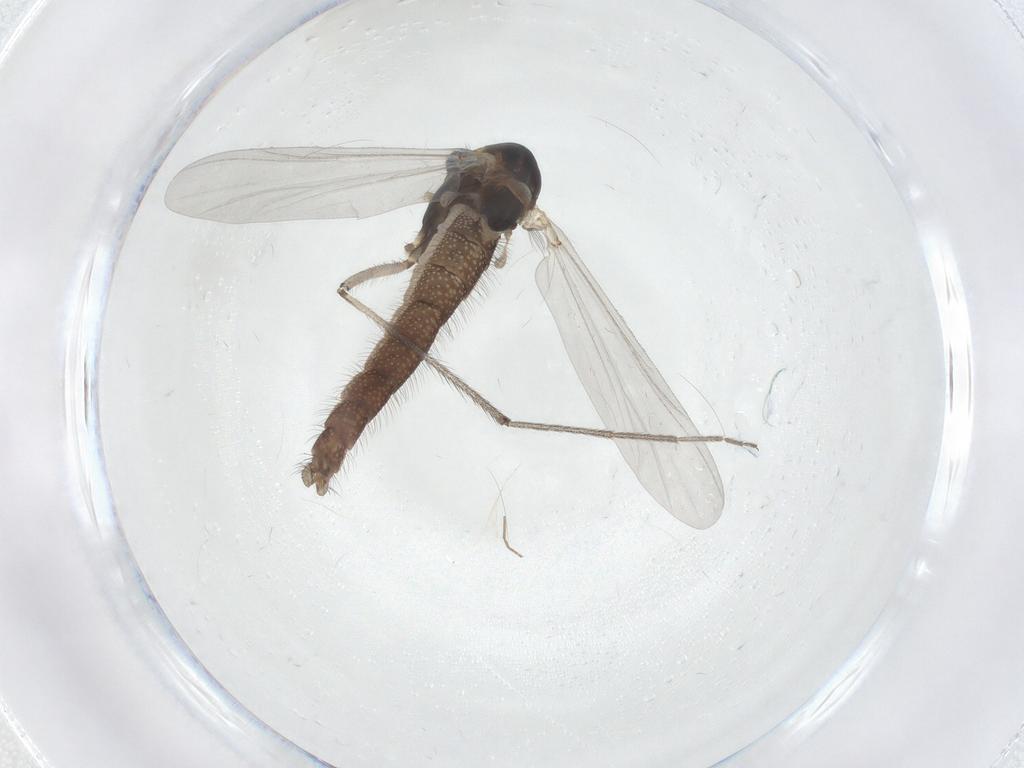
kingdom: Animalia
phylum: Arthropoda
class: Insecta
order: Diptera
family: Chironomidae
